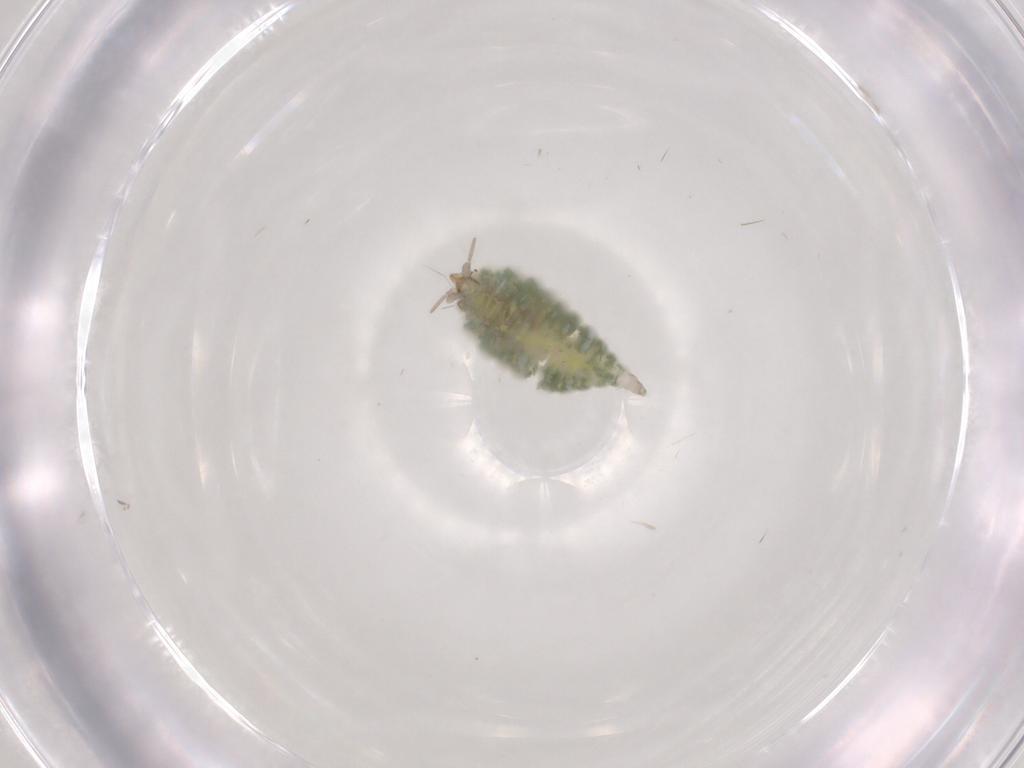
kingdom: Animalia
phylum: Arthropoda
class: Insecta
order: Neuroptera
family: Coniopterygidae
